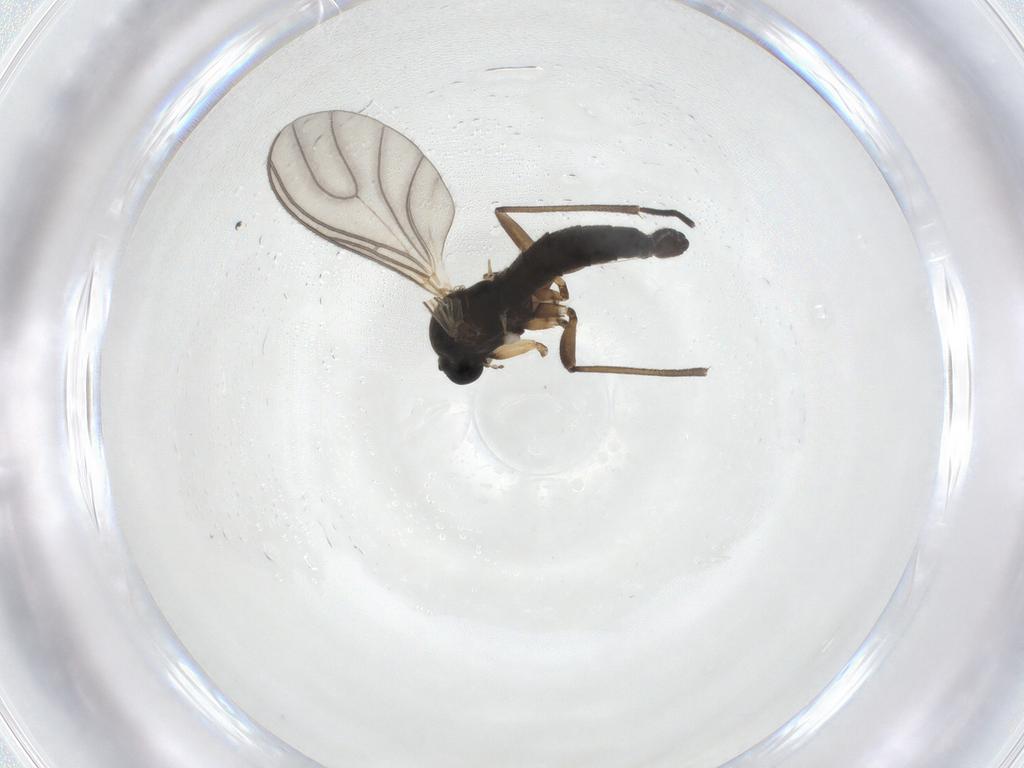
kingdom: Animalia
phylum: Arthropoda
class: Insecta
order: Diptera
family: Sciaridae
